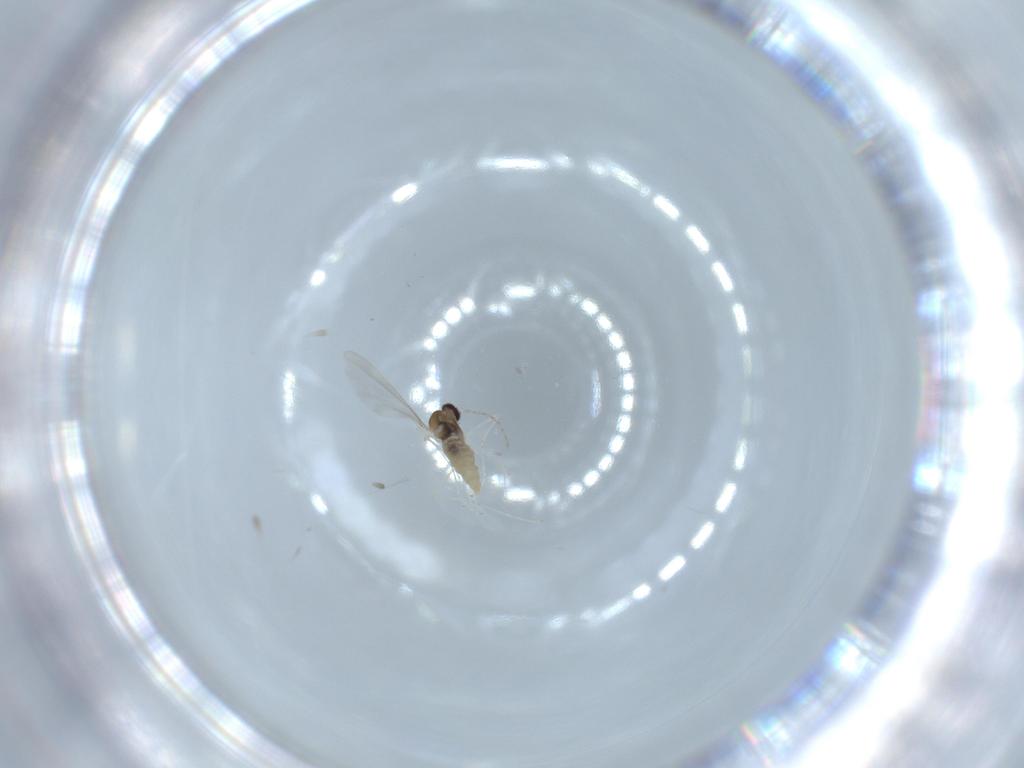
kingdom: Animalia
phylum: Arthropoda
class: Insecta
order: Diptera
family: Cecidomyiidae
